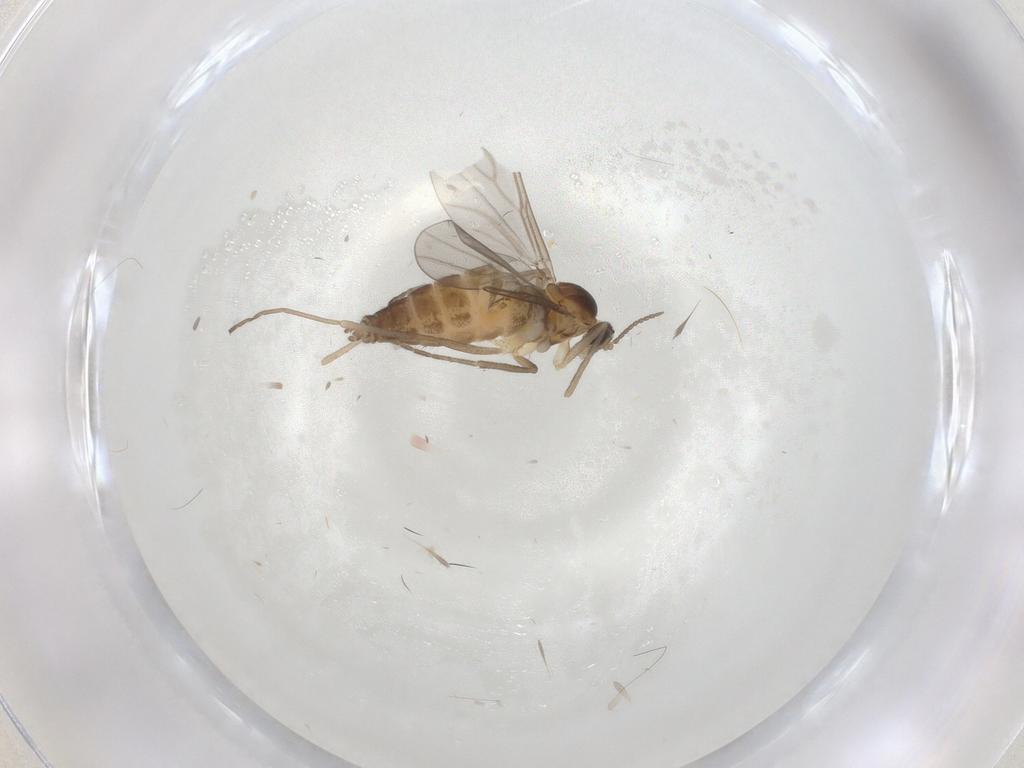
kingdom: Animalia
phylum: Arthropoda
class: Insecta
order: Diptera
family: Cecidomyiidae
